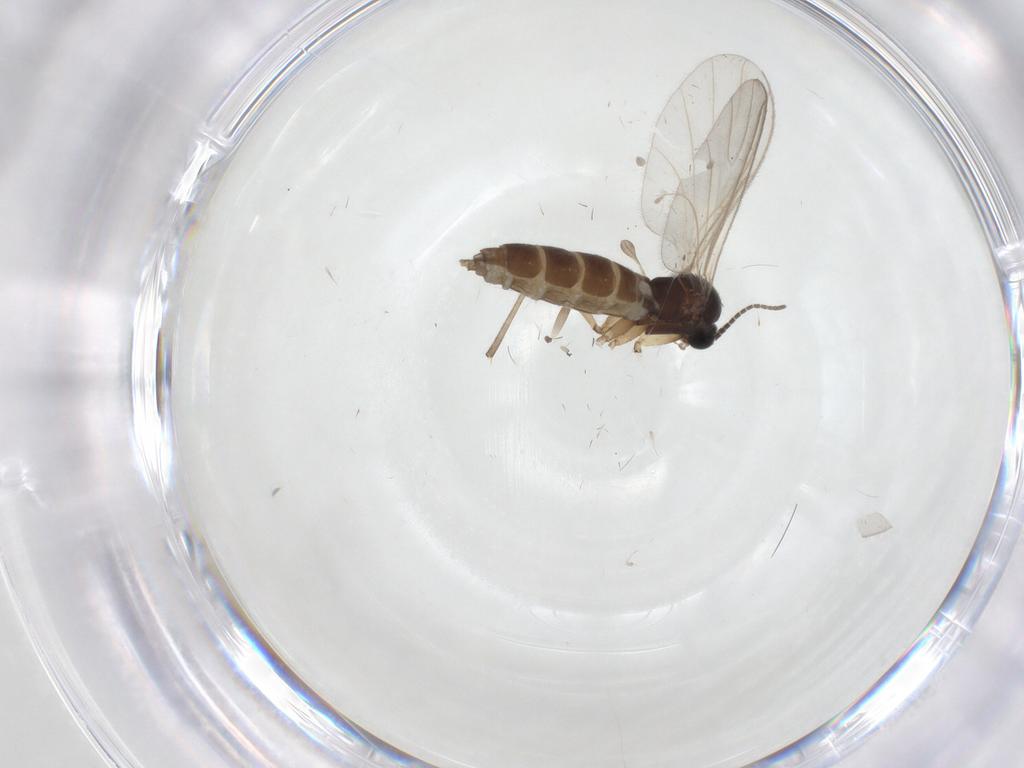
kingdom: Animalia
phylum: Arthropoda
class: Insecta
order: Diptera
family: Sciaridae
